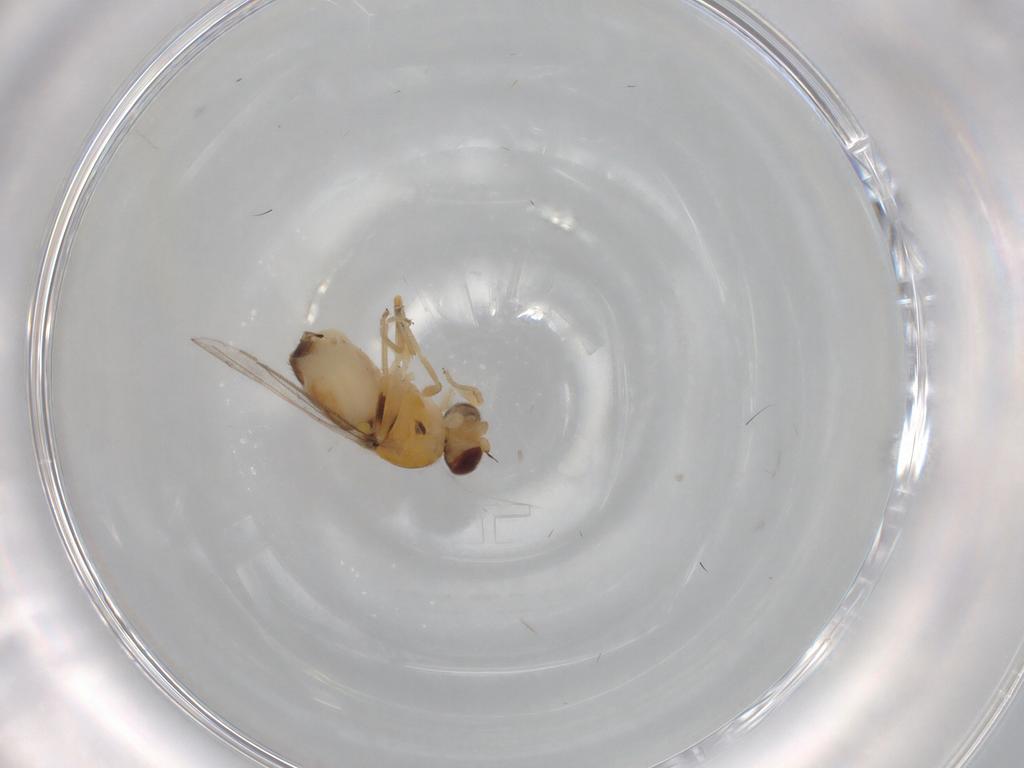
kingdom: Animalia
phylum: Arthropoda
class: Insecta
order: Diptera
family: Chloropidae
